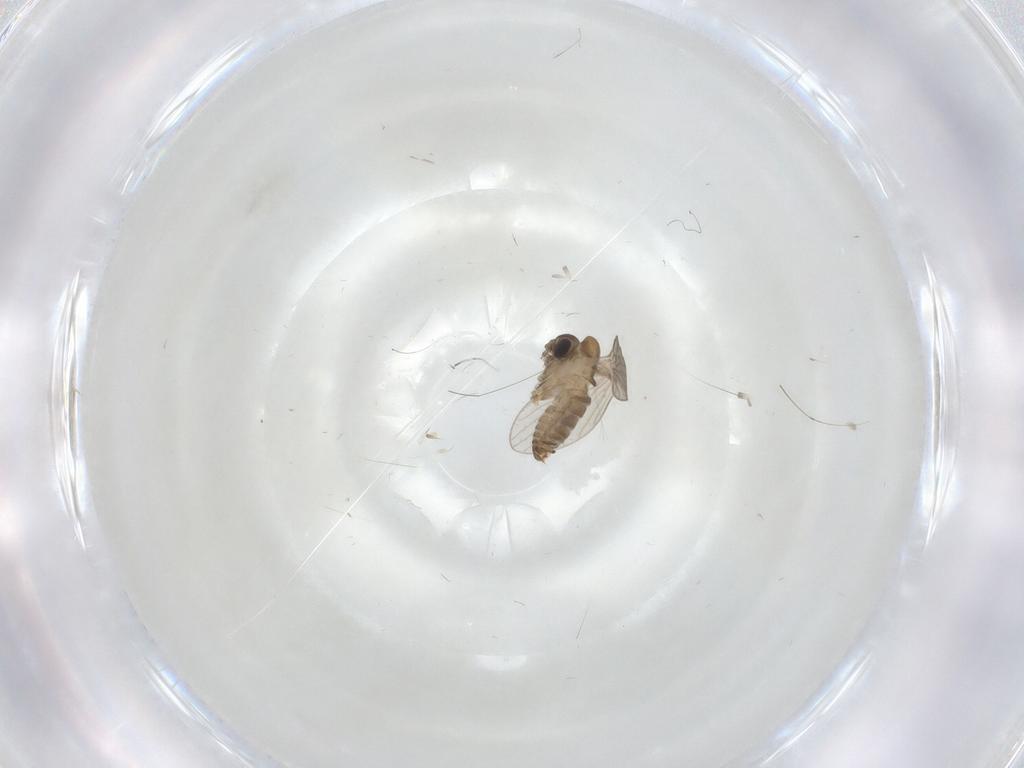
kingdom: Animalia
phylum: Arthropoda
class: Insecta
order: Diptera
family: Psychodidae
